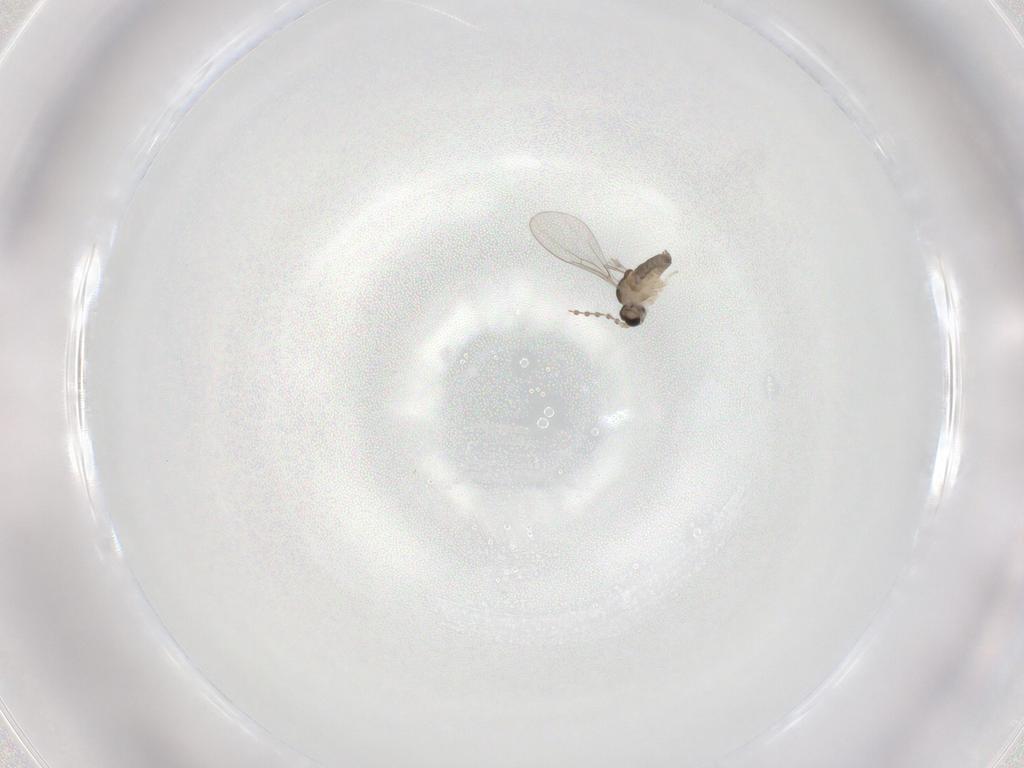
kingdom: Animalia
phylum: Arthropoda
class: Insecta
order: Diptera
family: Cecidomyiidae
